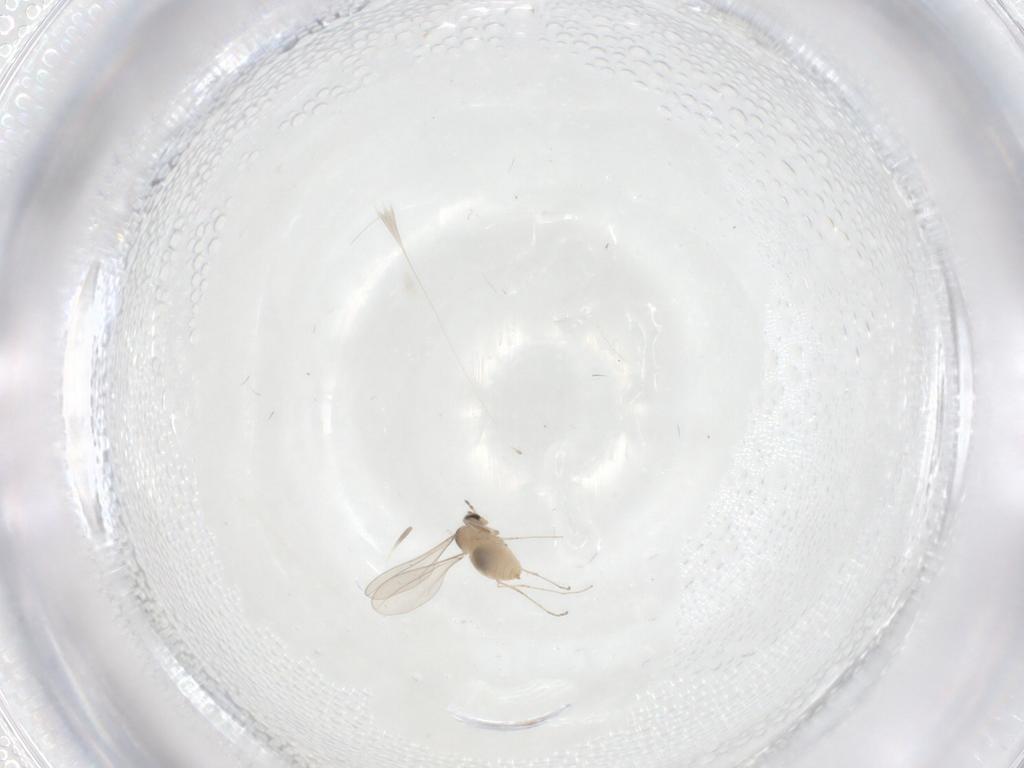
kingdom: Animalia
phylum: Arthropoda
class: Insecta
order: Diptera
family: Cecidomyiidae
